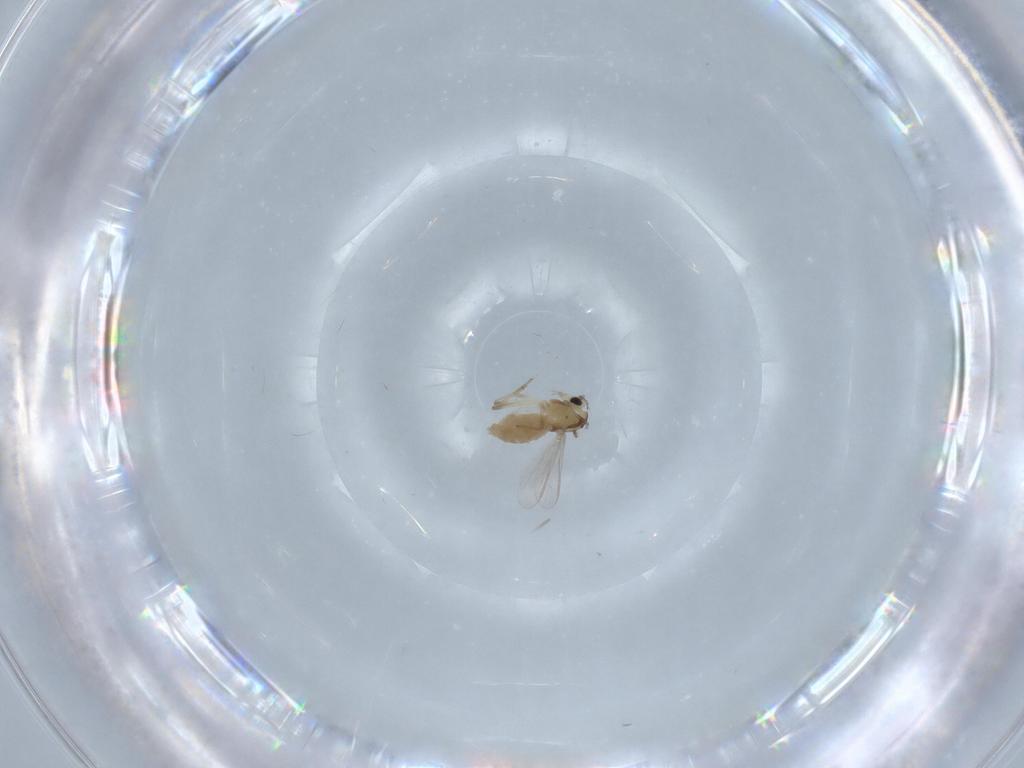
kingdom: Animalia
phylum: Arthropoda
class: Insecta
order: Diptera
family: Chironomidae
